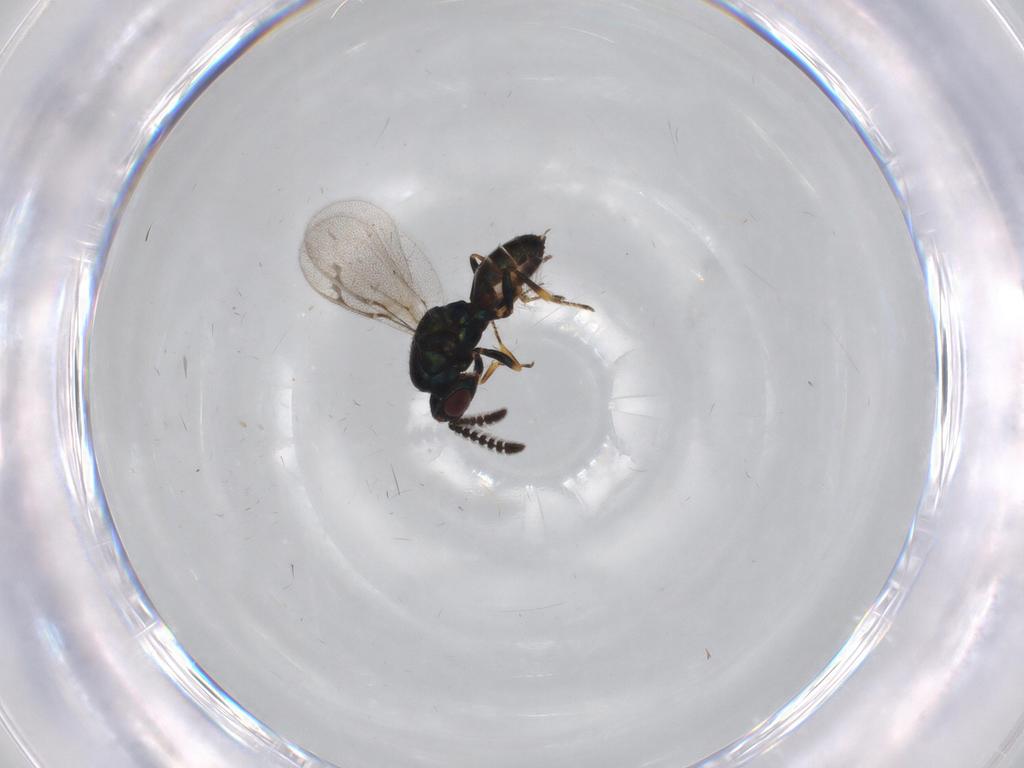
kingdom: Animalia
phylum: Arthropoda
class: Insecta
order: Hymenoptera
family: Pteromalidae
